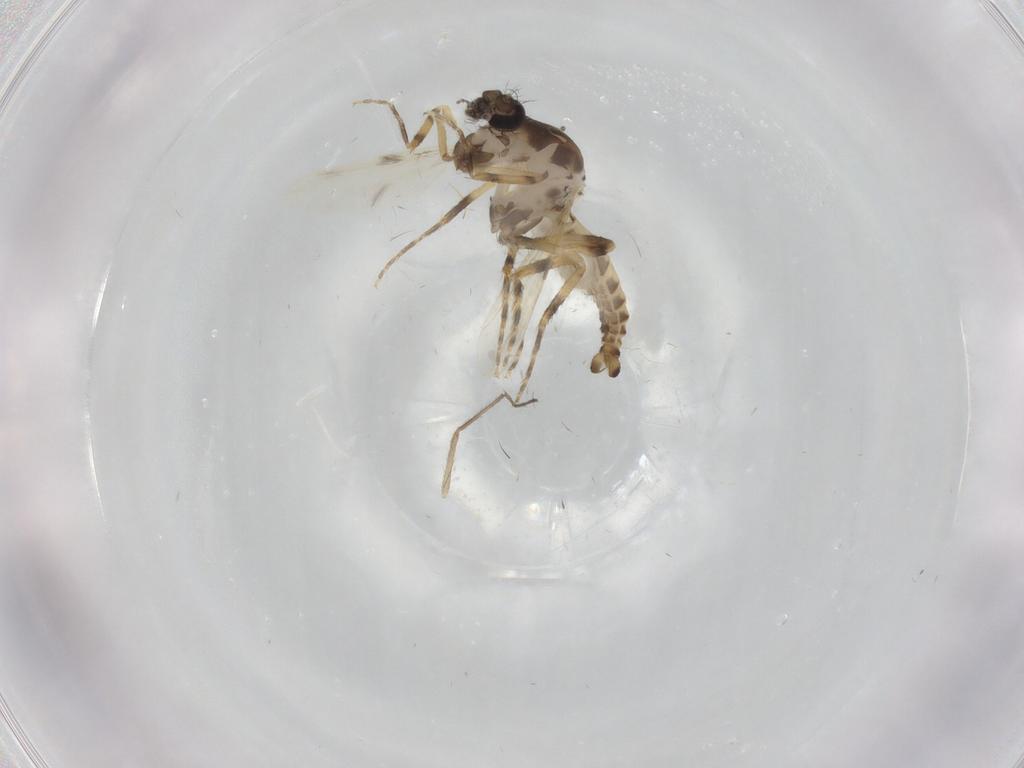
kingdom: Animalia
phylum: Arthropoda
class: Insecta
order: Diptera
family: Ceratopogonidae
